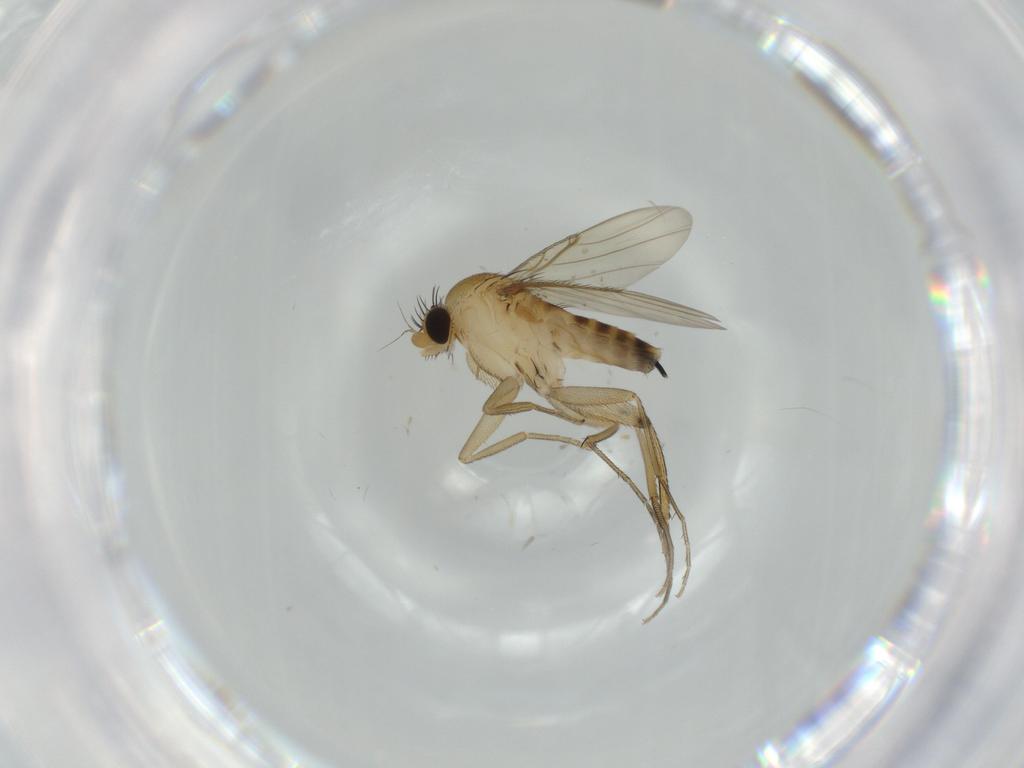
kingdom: Animalia
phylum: Arthropoda
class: Insecta
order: Diptera
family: Phoridae
